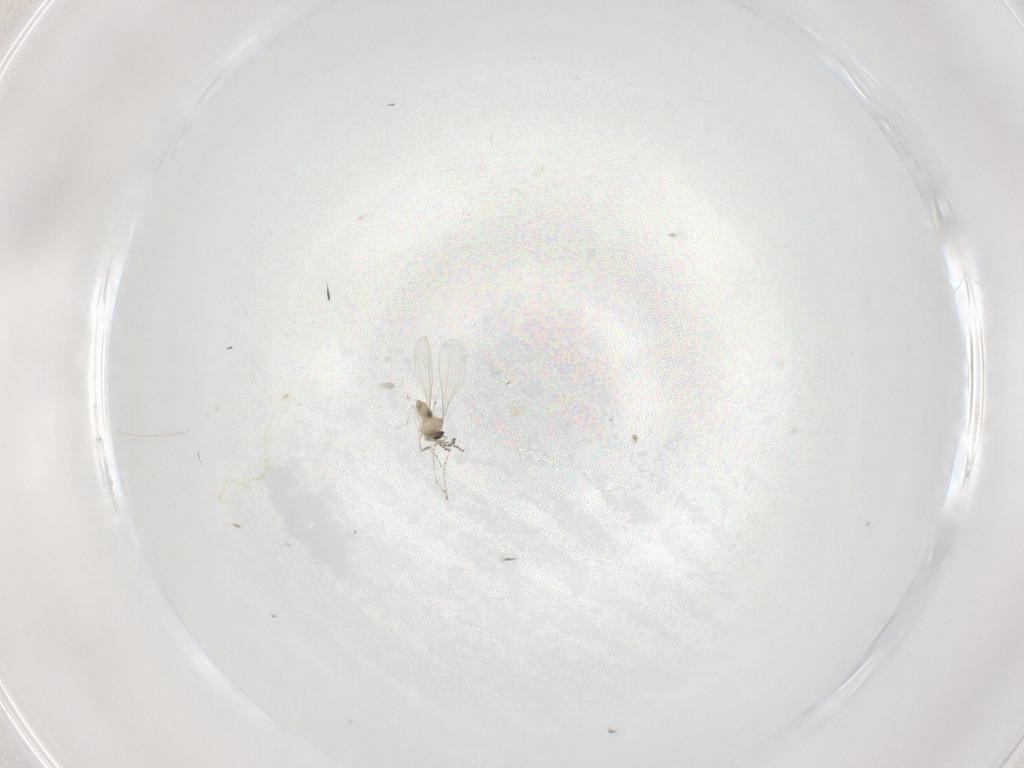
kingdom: Animalia
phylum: Arthropoda
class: Insecta
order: Diptera
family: Cecidomyiidae
